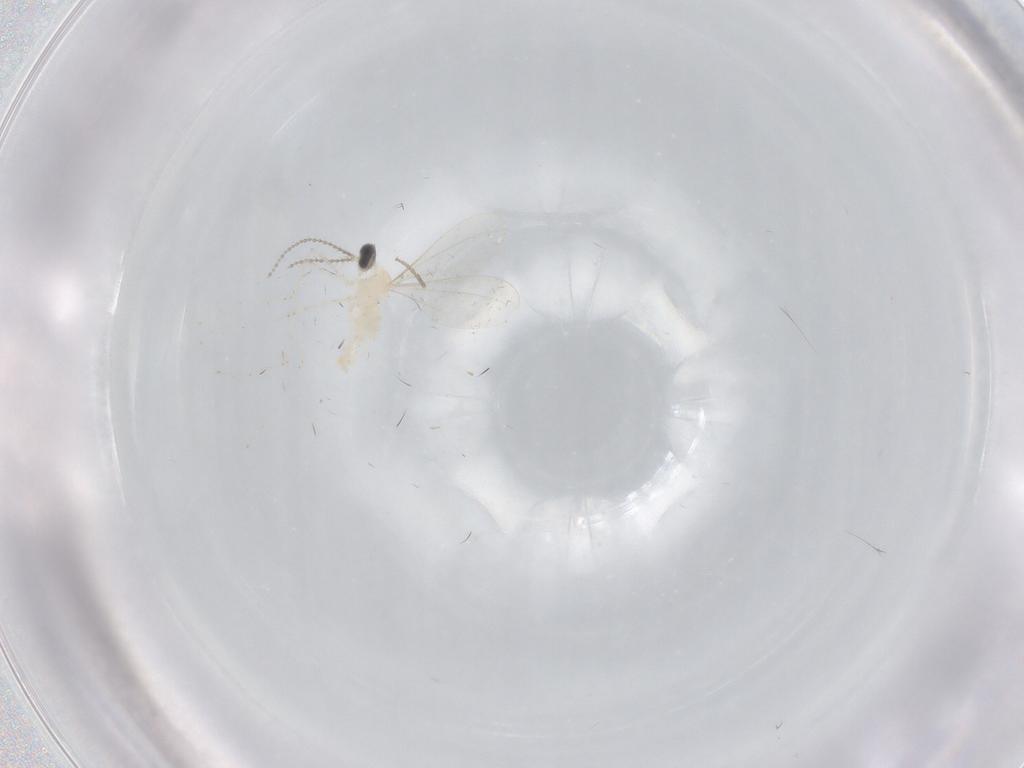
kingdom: Animalia
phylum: Arthropoda
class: Insecta
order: Diptera
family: Cecidomyiidae
